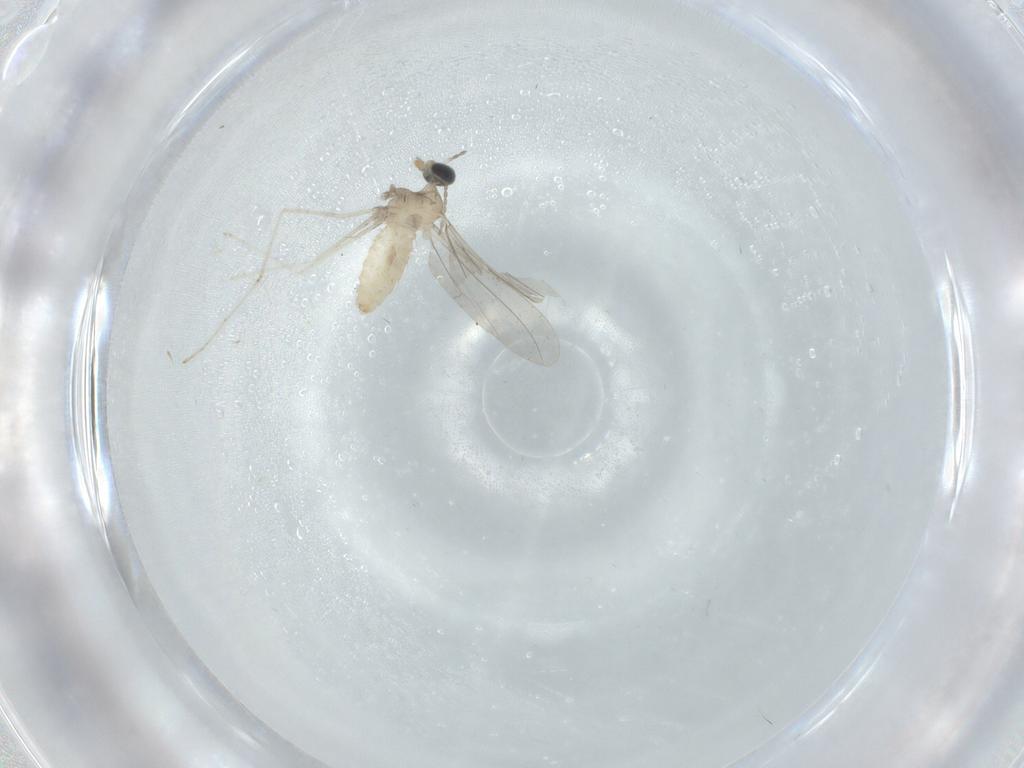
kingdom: Animalia
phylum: Arthropoda
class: Insecta
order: Diptera
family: Cecidomyiidae
